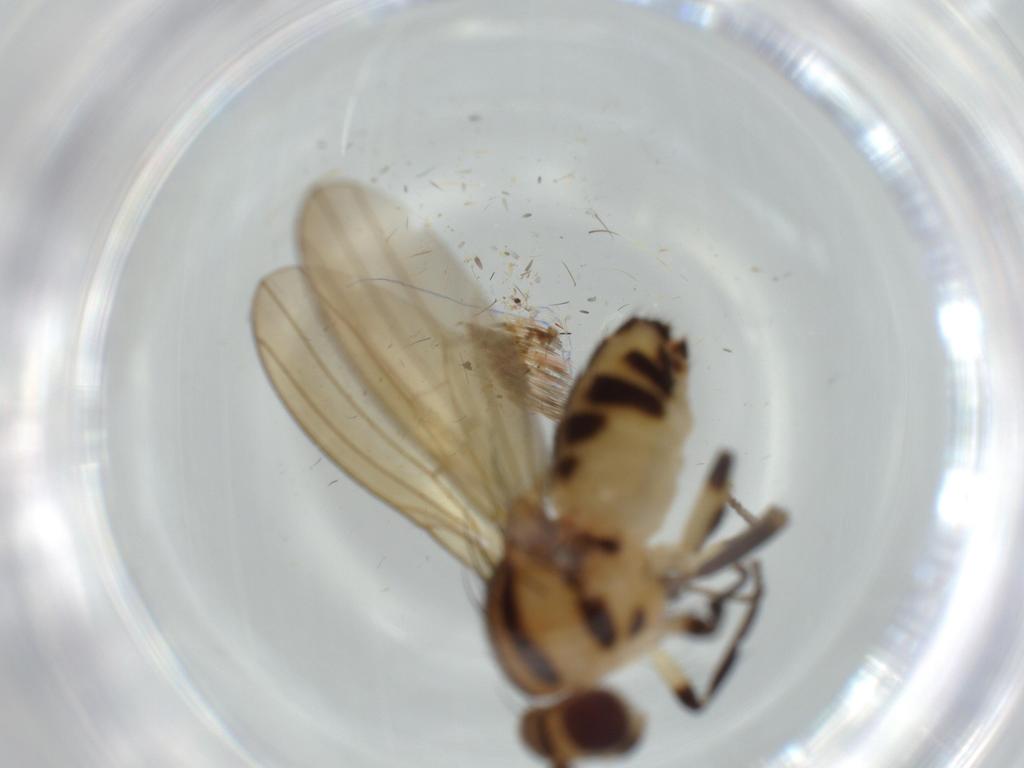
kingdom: Animalia
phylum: Arthropoda
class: Insecta
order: Diptera
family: Lauxaniidae
